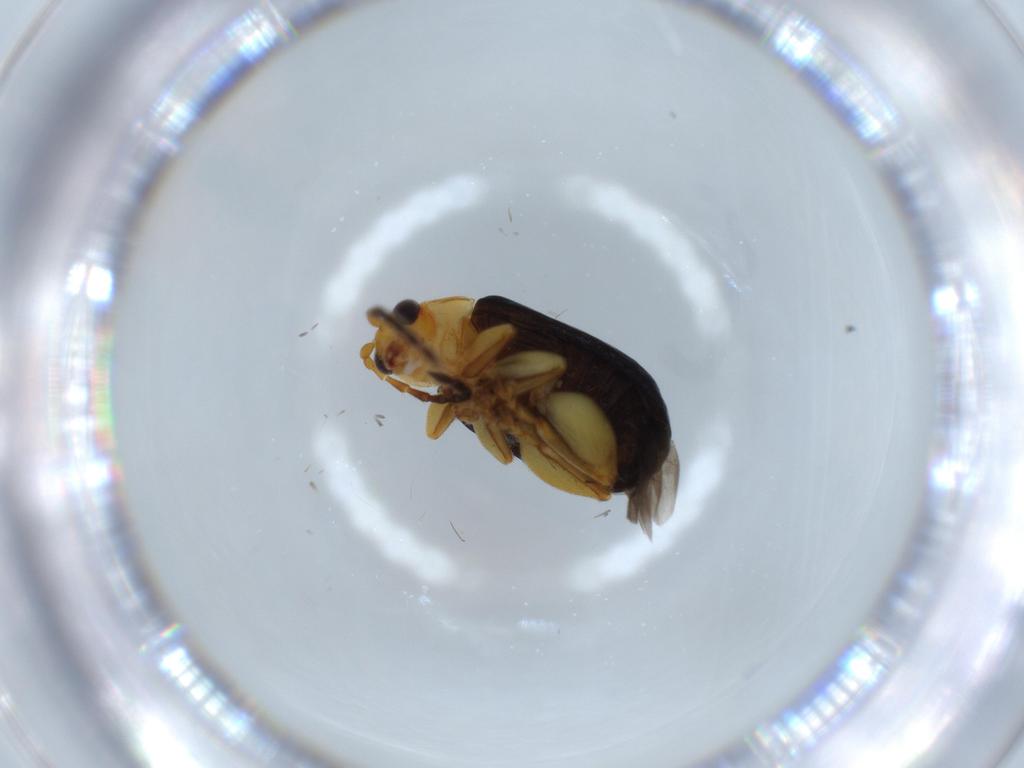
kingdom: Animalia
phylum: Arthropoda
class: Insecta
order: Coleoptera
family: Chrysomelidae
